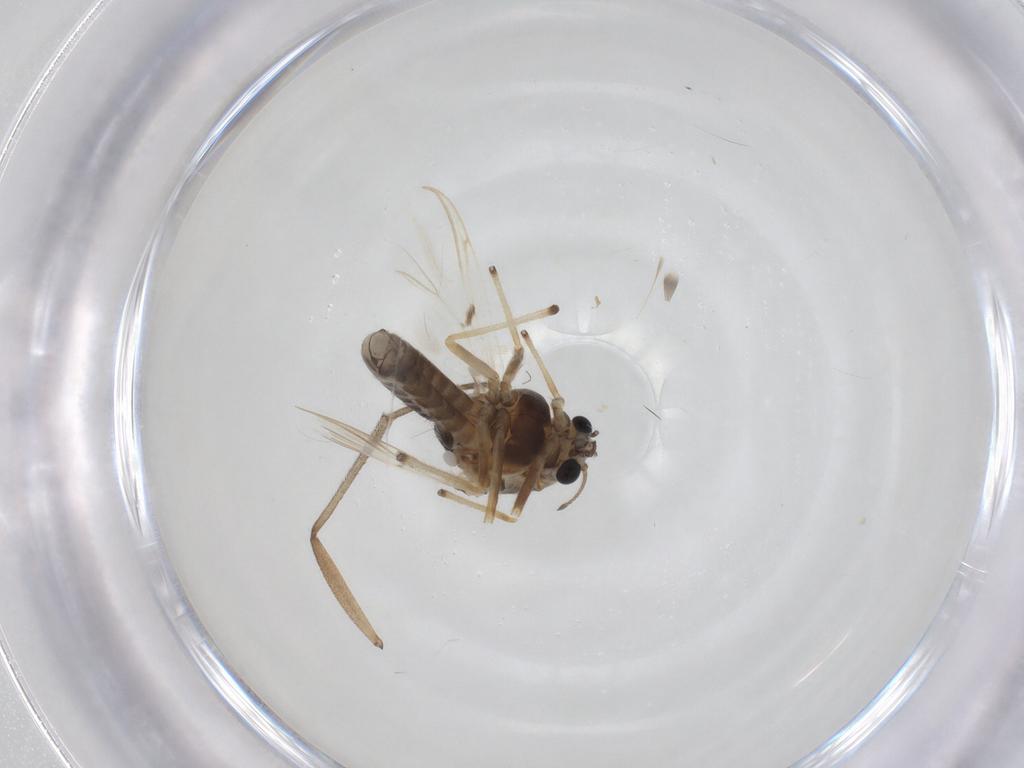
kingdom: Animalia
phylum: Arthropoda
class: Insecta
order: Diptera
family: Chironomidae
